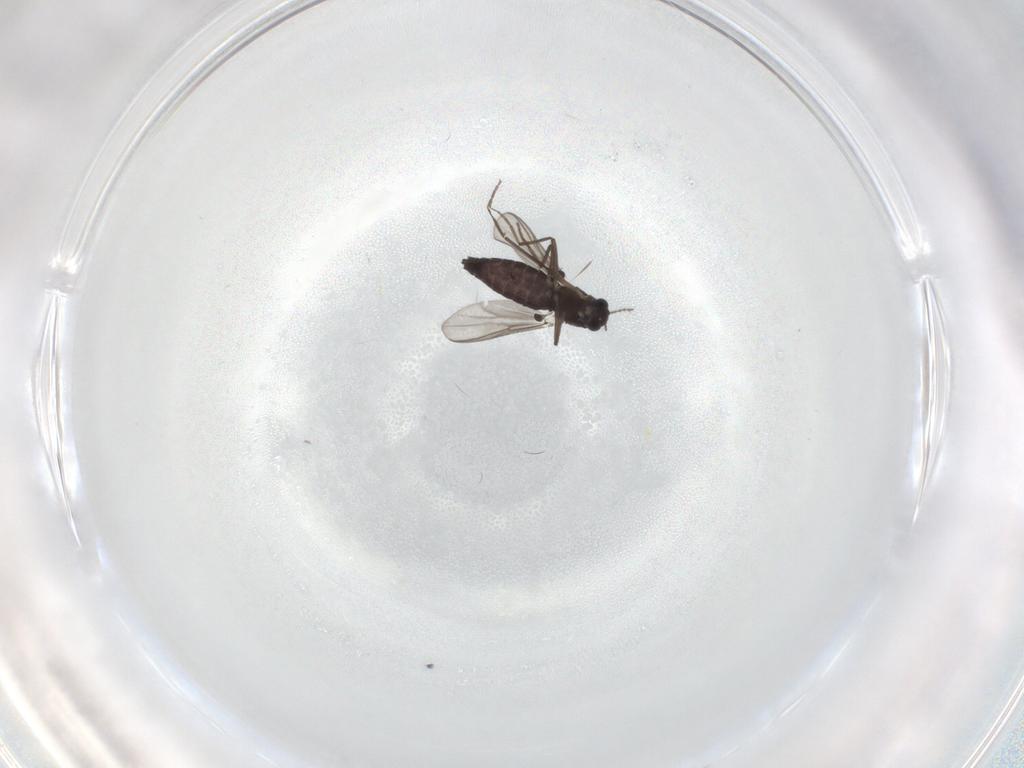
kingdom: Animalia
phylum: Arthropoda
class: Insecta
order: Diptera
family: Chironomidae
